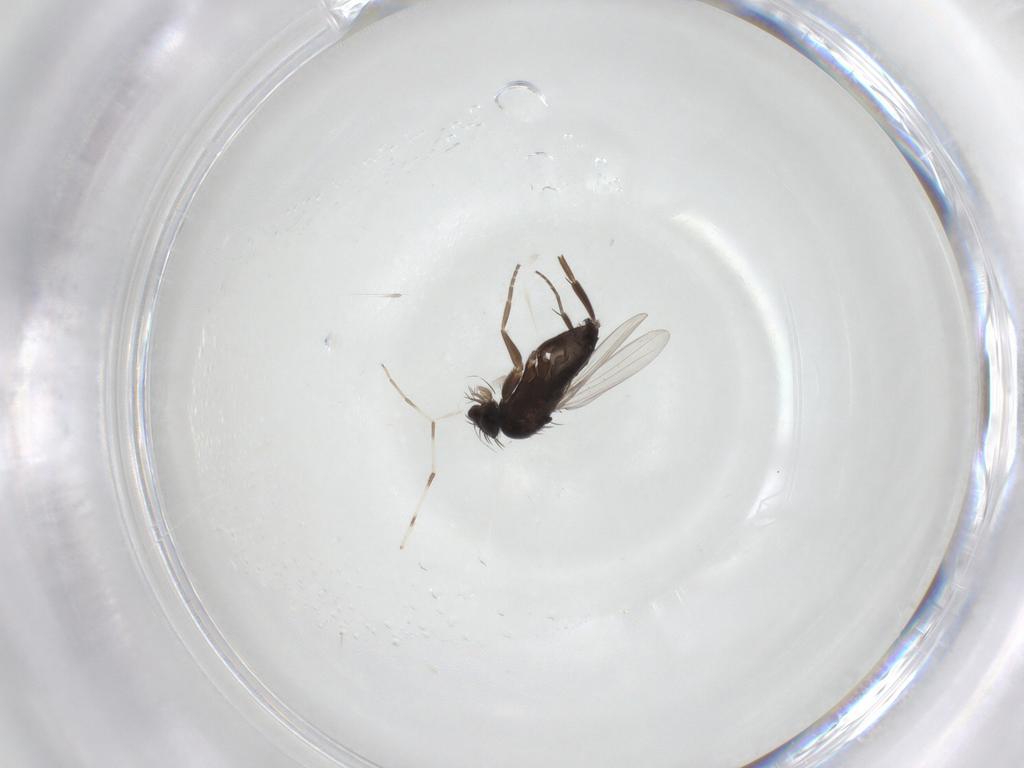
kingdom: Animalia
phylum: Arthropoda
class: Insecta
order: Diptera
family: Phoridae
